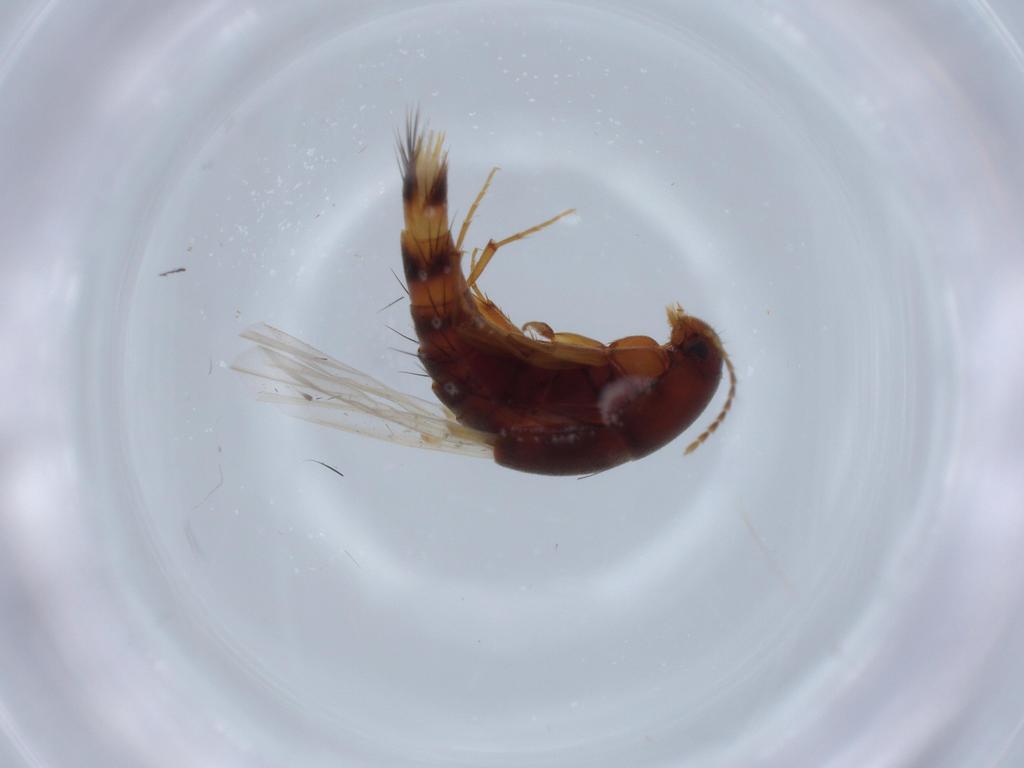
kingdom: Animalia
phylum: Arthropoda
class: Insecta
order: Coleoptera
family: Staphylinidae
